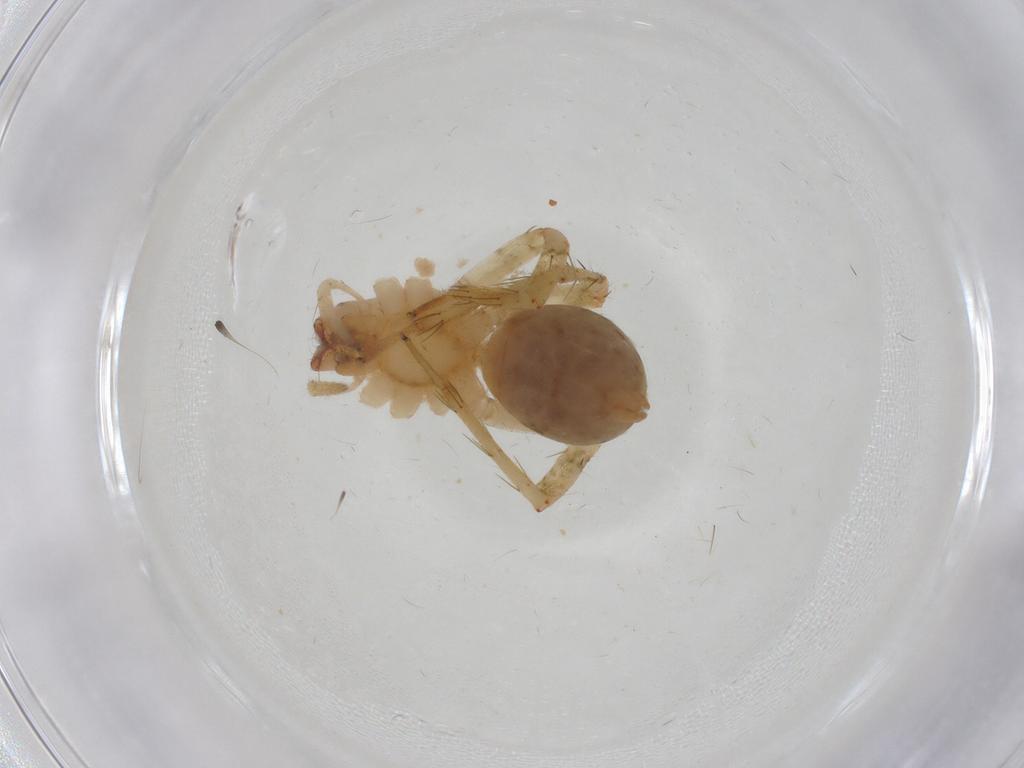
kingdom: Animalia
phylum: Arthropoda
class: Arachnida
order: Araneae
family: Anyphaenidae
